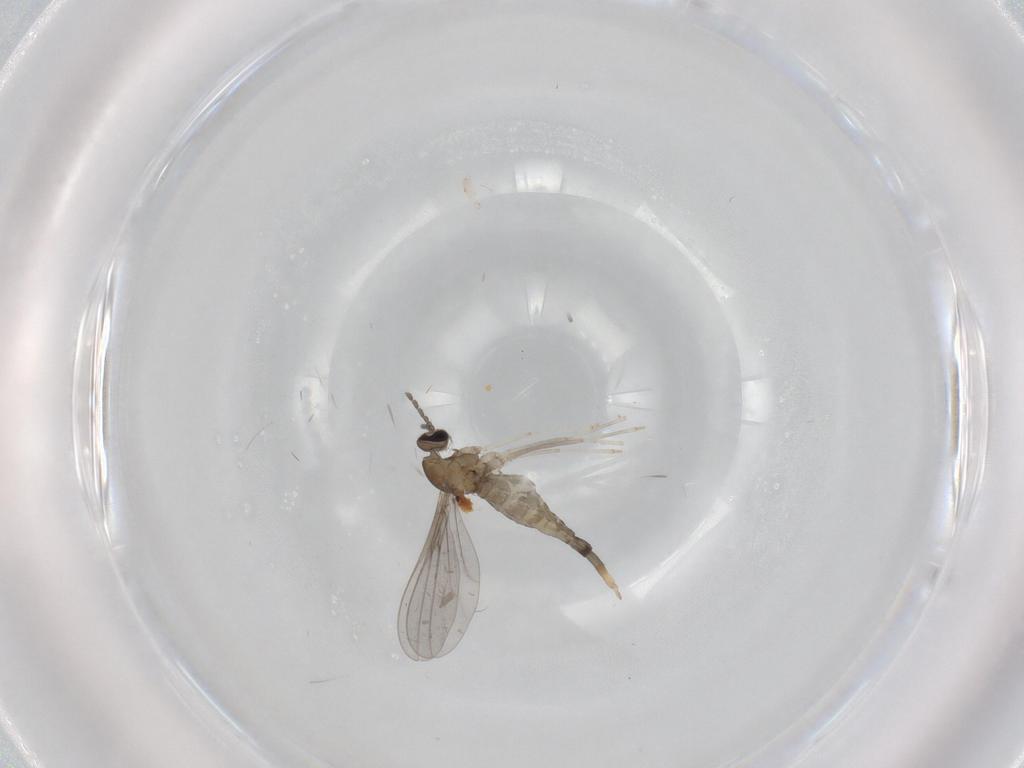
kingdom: Animalia
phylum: Arthropoda
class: Insecta
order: Diptera
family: Cecidomyiidae
